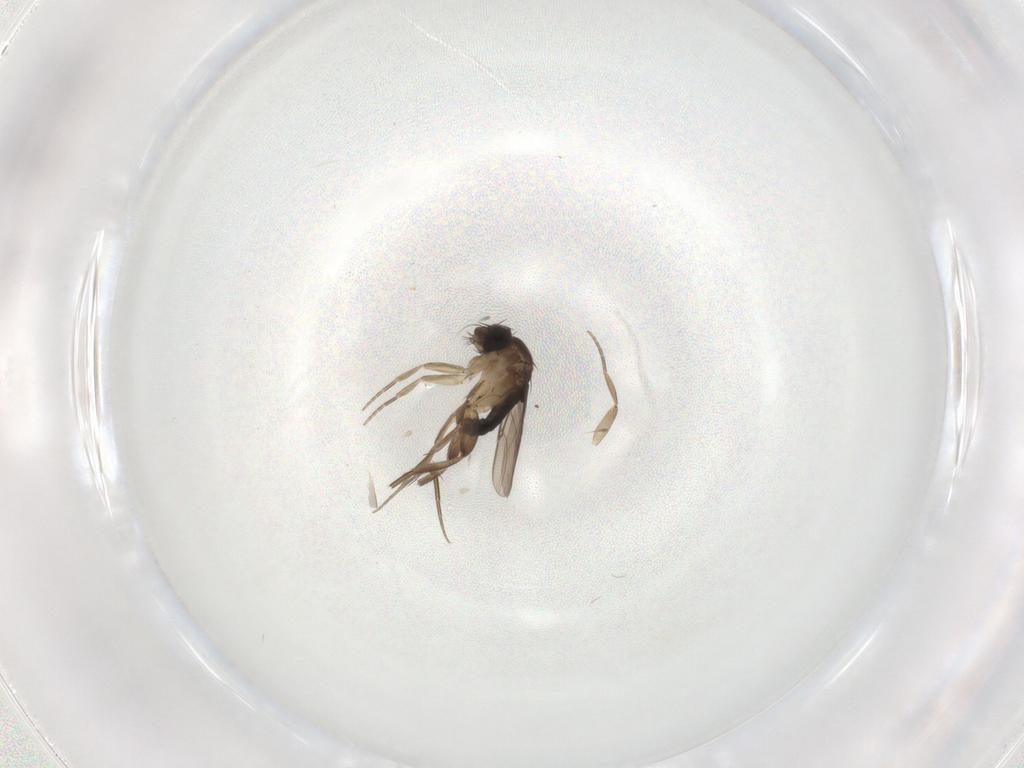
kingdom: Animalia
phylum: Arthropoda
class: Insecta
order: Diptera
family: Phoridae
